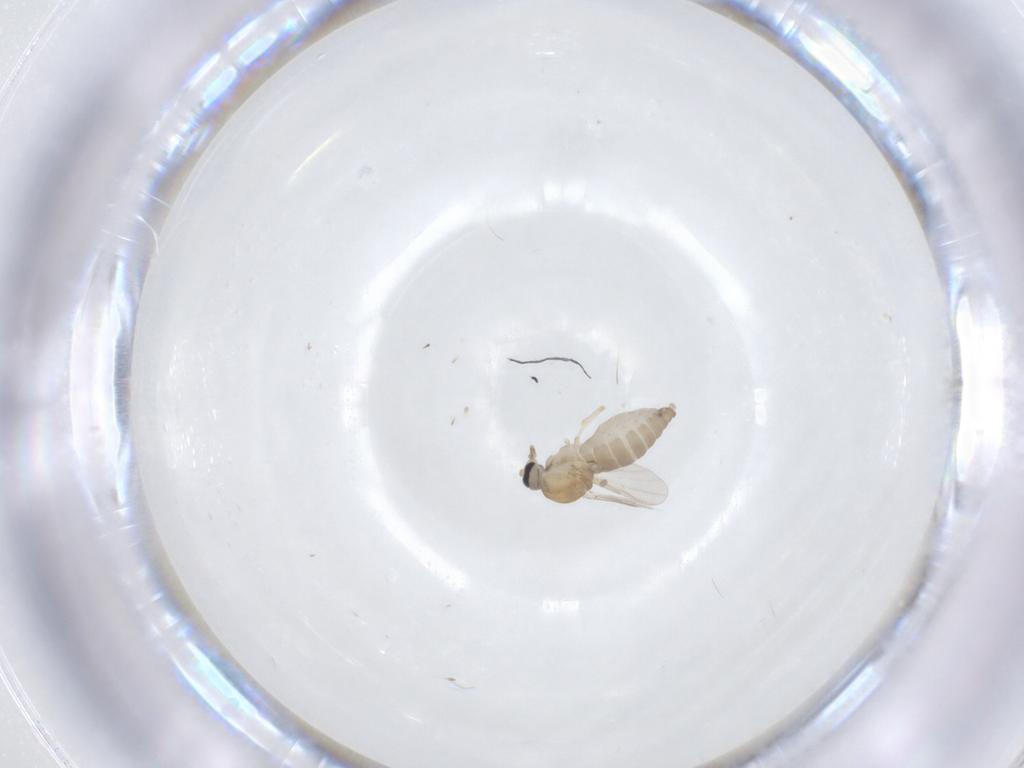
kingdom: Animalia
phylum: Arthropoda
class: Insecta
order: Diptera
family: Ceratopogonidae
